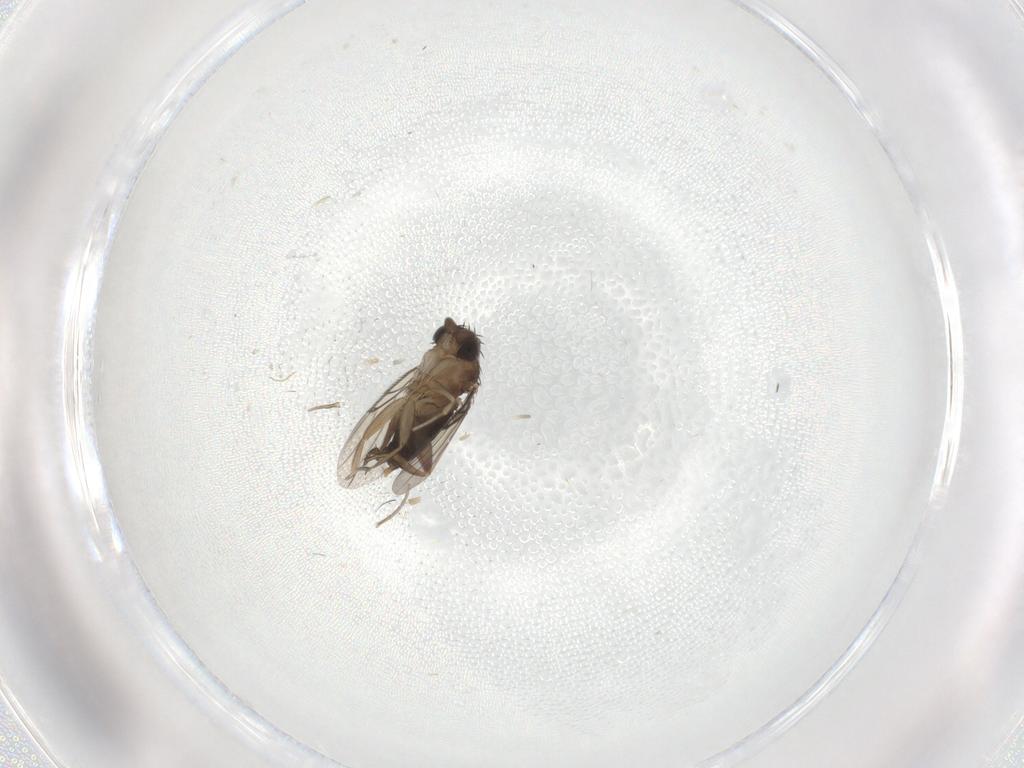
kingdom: Animalia
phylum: Arthropoda
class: Insecta
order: Diptera
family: Phoridae
